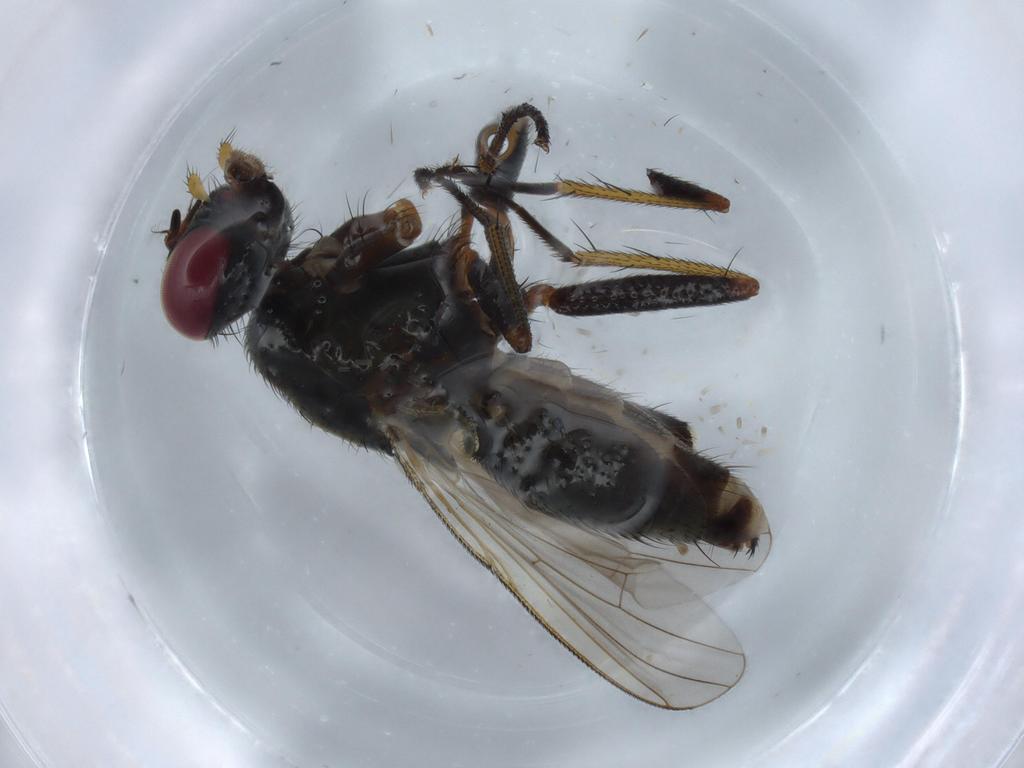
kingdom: Animalia
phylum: Arthropoda
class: Insecta
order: Diptera
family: Muscidae
